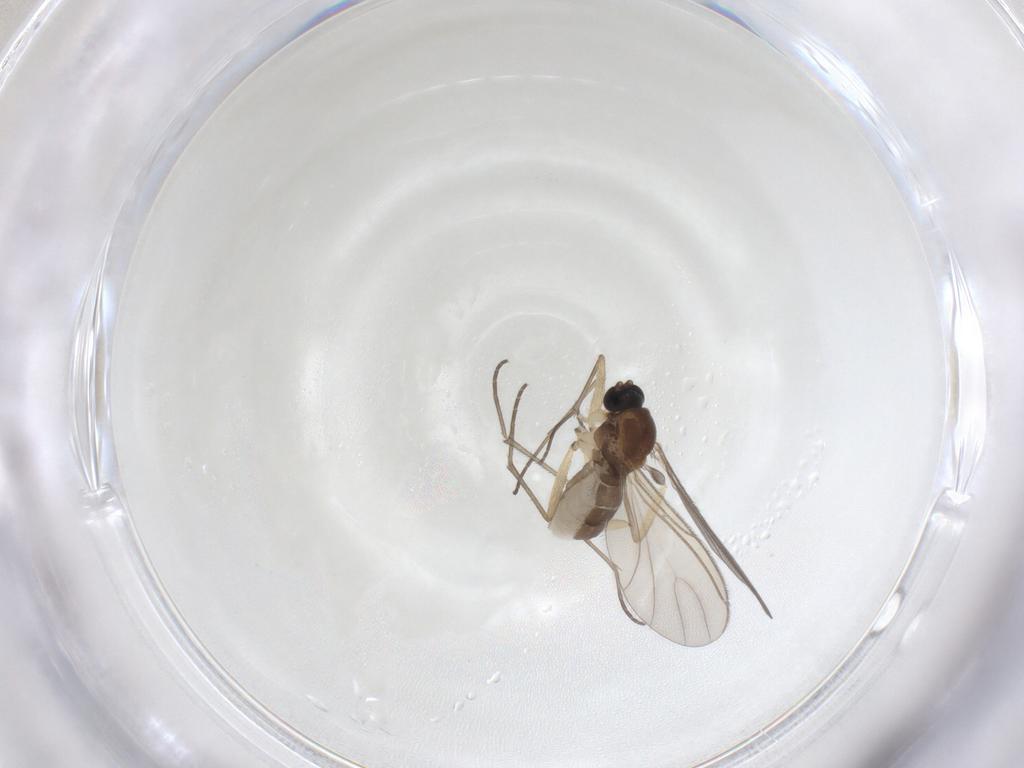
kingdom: Animalia
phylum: Arthropoda
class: Insecta
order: Diptera
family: Sciaridae
